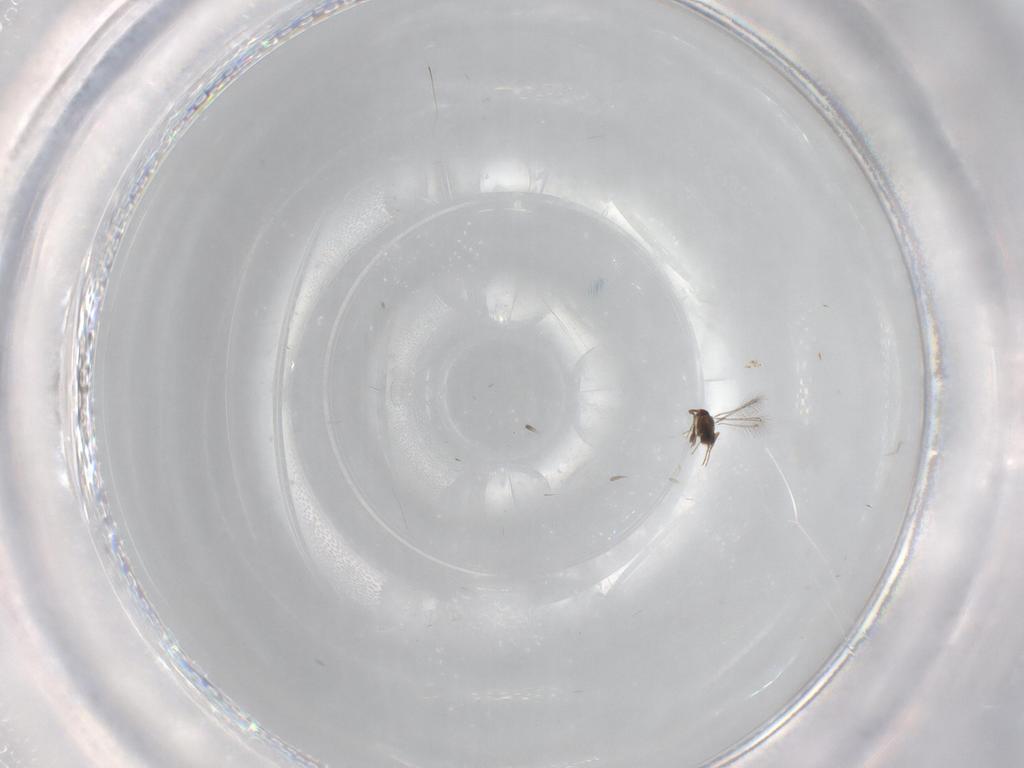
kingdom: Animalia
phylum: Arthropoda
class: Insecta
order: Hymenoptera
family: Mymaridae
